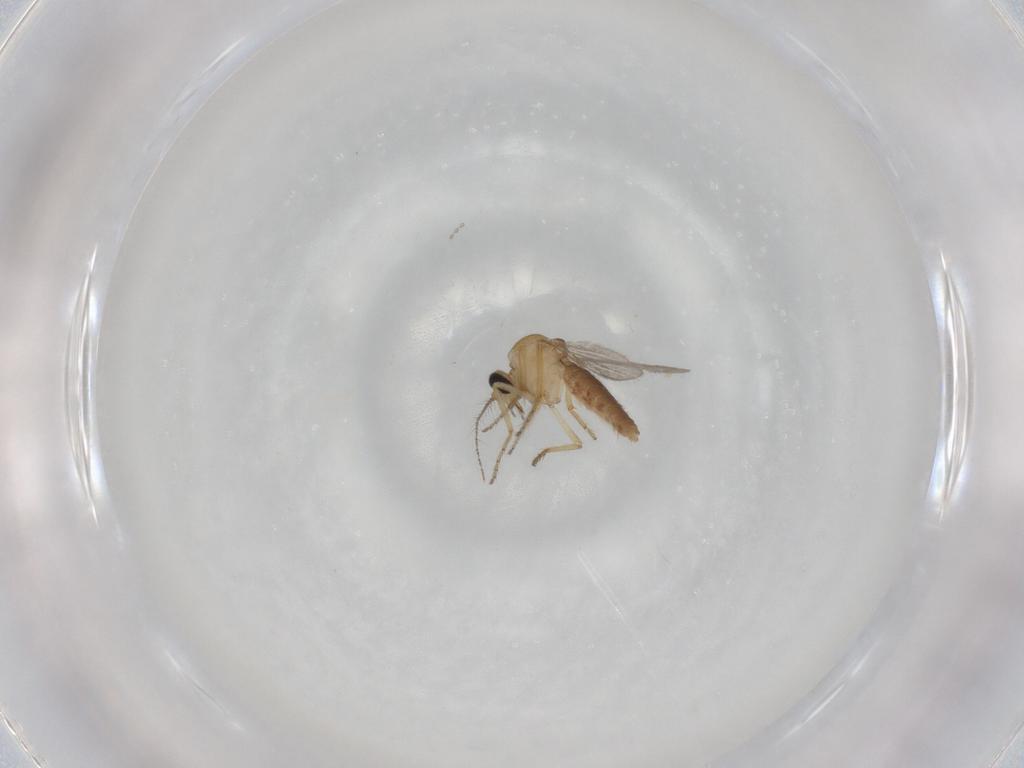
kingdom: Animalia
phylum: Arthropoda
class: Insecta
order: Diptera
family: Ceratopogonidae
